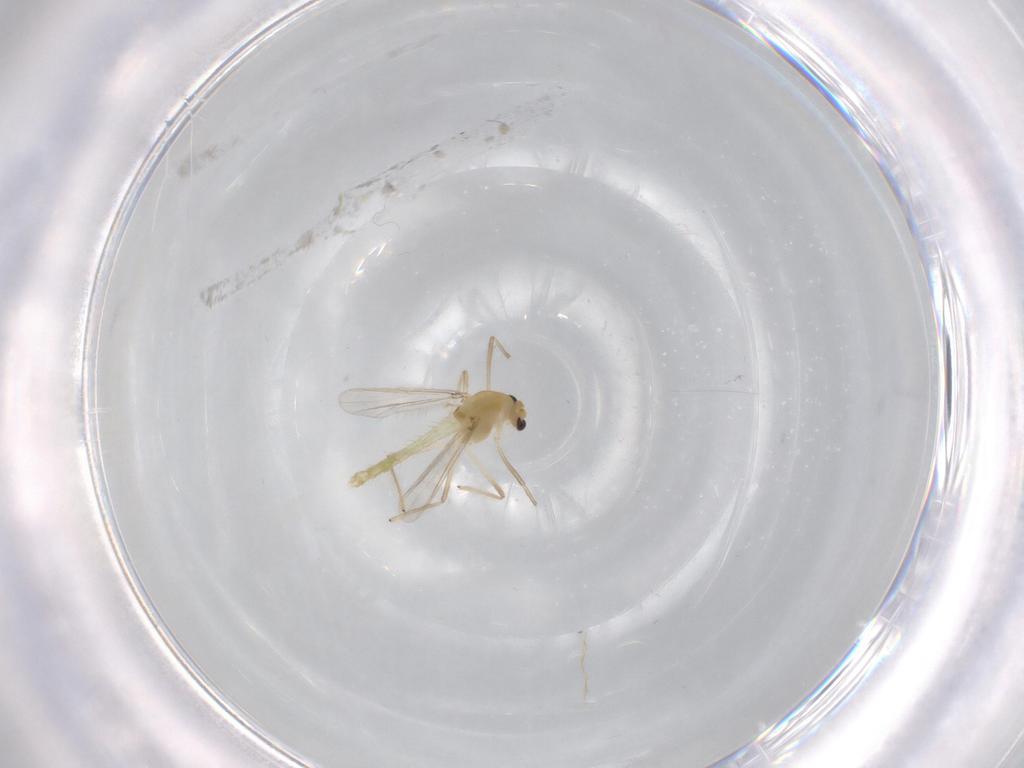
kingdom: Animalia
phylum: Arthropoda
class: Insecta
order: Diptera
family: Chironomidae
